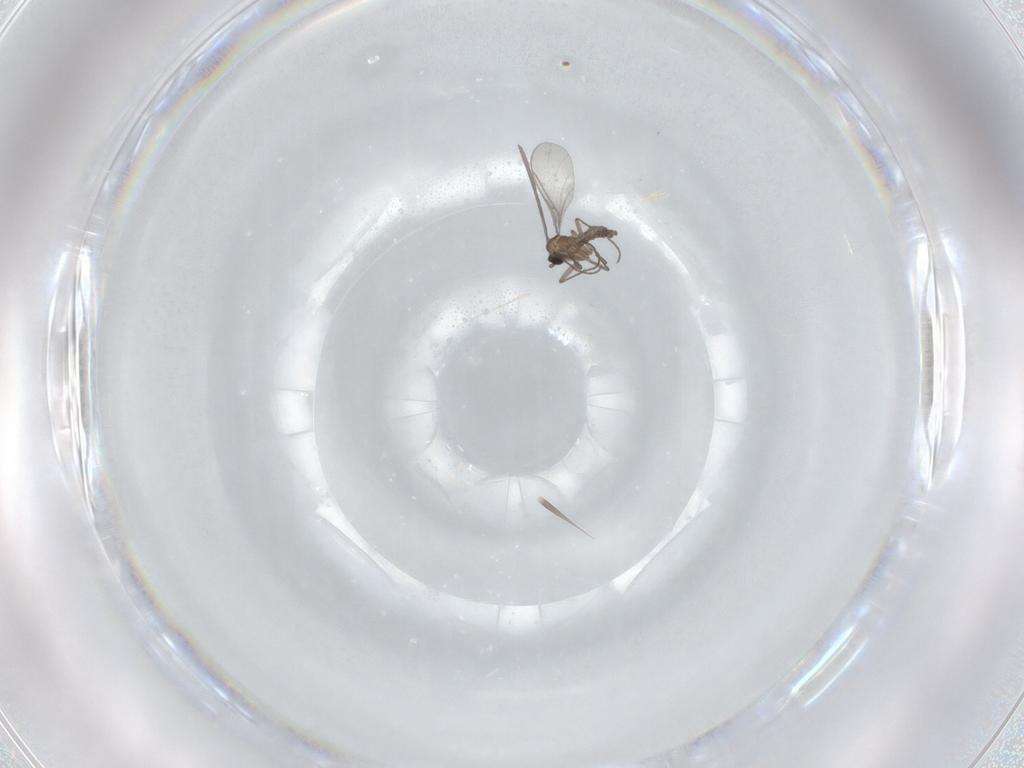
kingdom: Animalia
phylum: Arthropoda
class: Insecta
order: Diptera
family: Sciaridae
